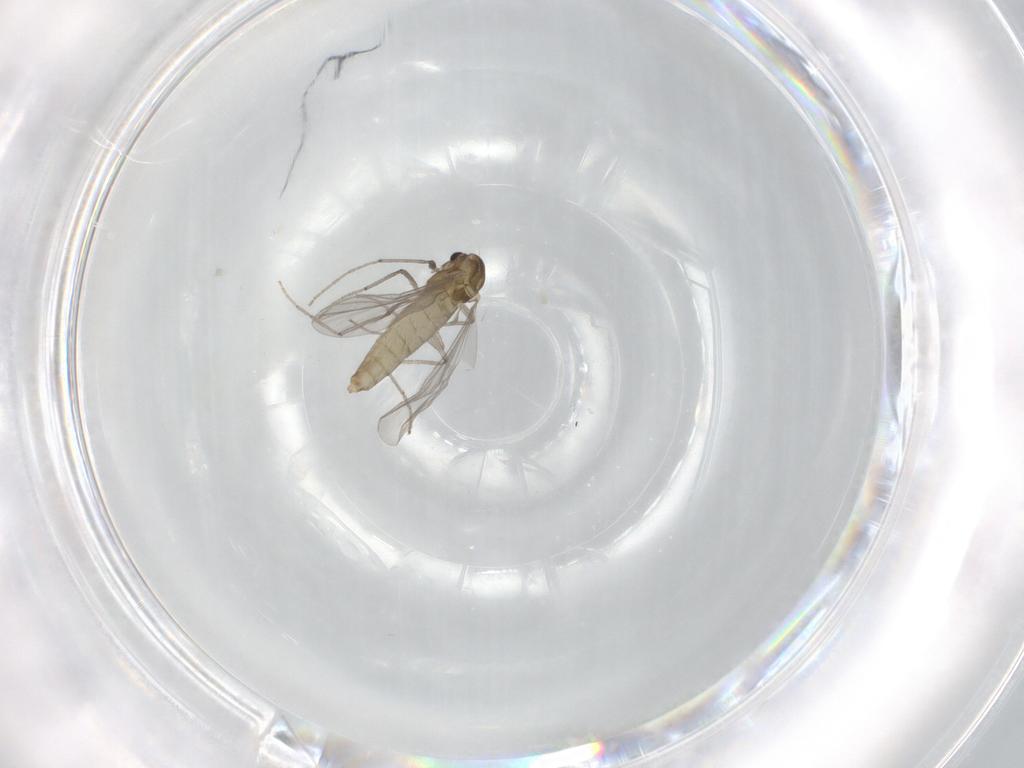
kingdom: Animalia
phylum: Arthropoda
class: Insecta
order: Diptera
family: Chironomidae
